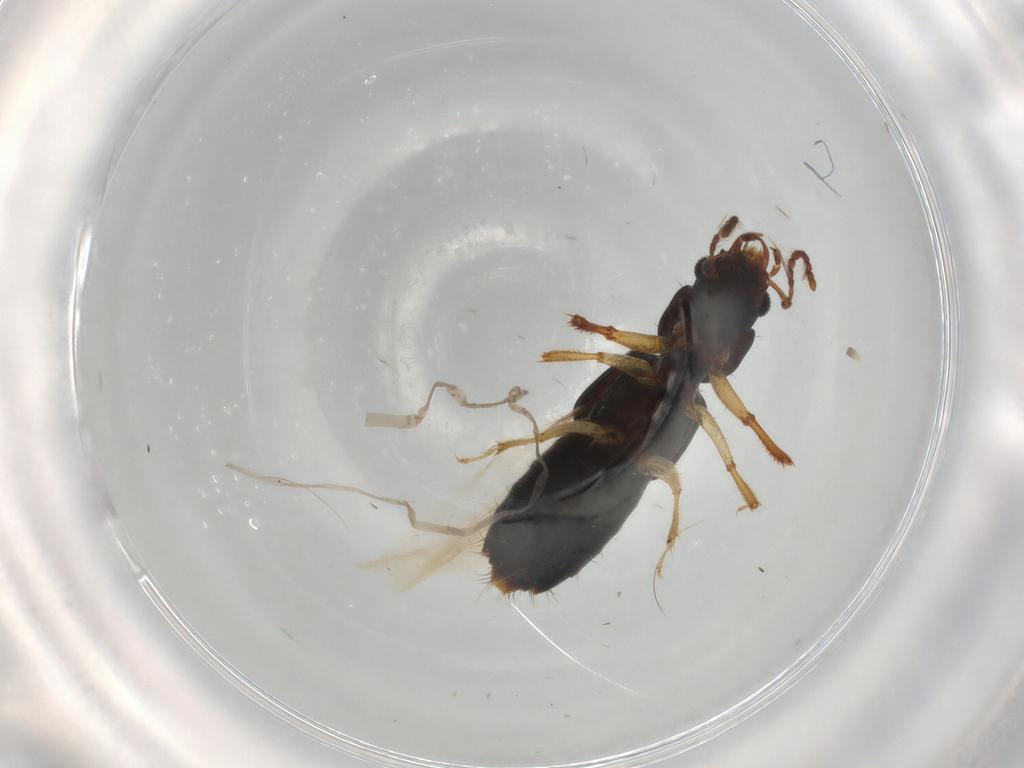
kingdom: Animalia
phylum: Arthropoda
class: Insecta
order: Coleoptera
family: Staphylinidae
